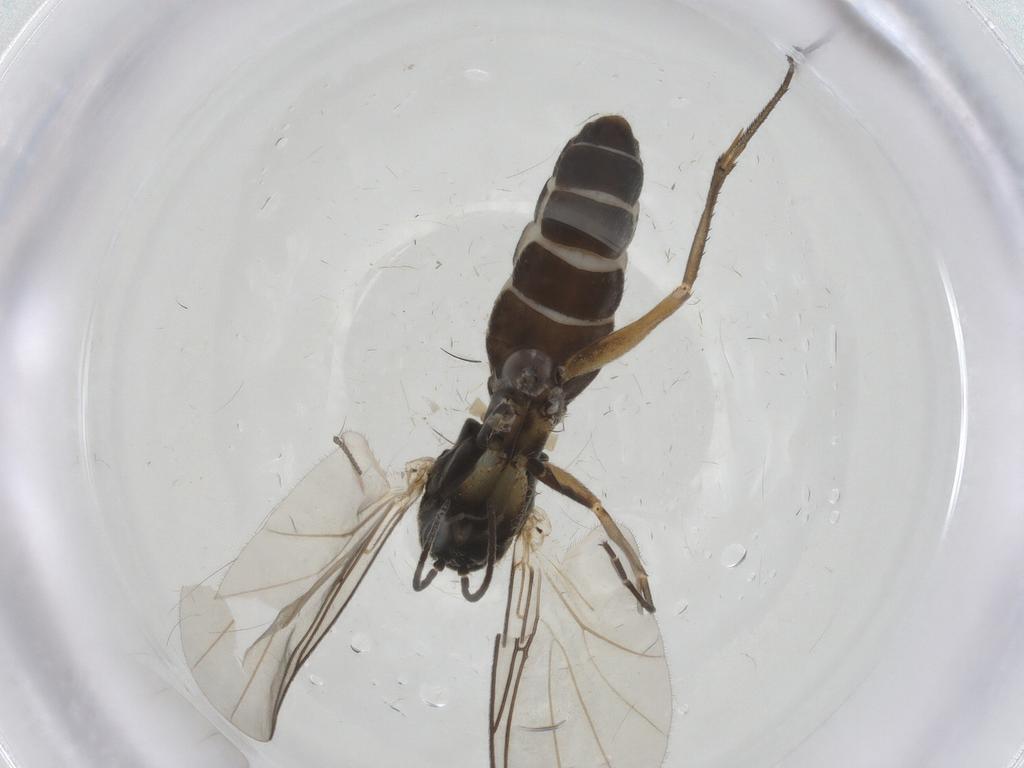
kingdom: Animalia
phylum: Arthropoda
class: Insecta
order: Diptera
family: Mycetophilidae
